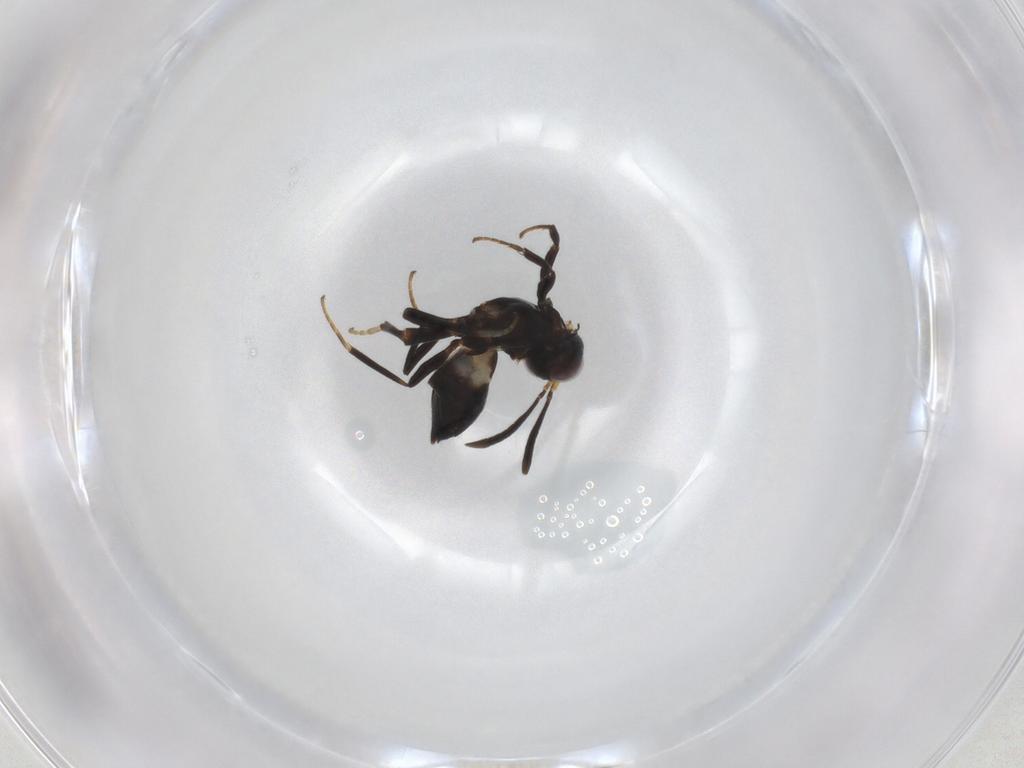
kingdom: Animalia
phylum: Arthropoda
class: Insecta
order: Hymenoptera
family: Eupelmidae
